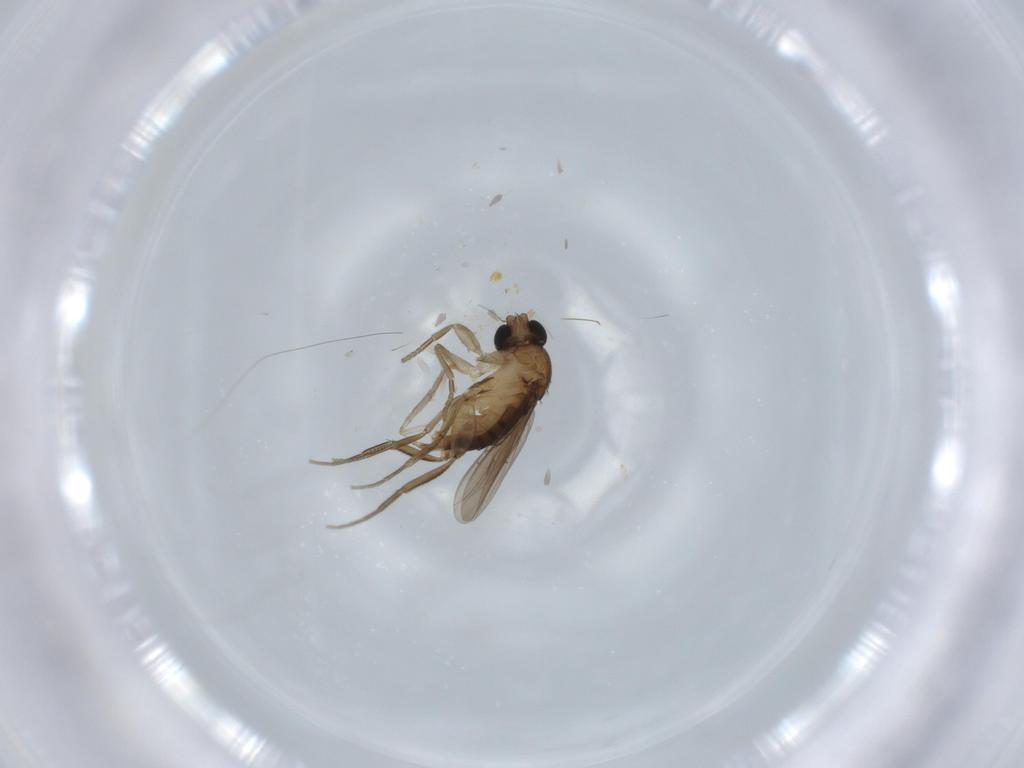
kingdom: Animalia
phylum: Arthropoda
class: Insecta
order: Diptera
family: Phoridae
